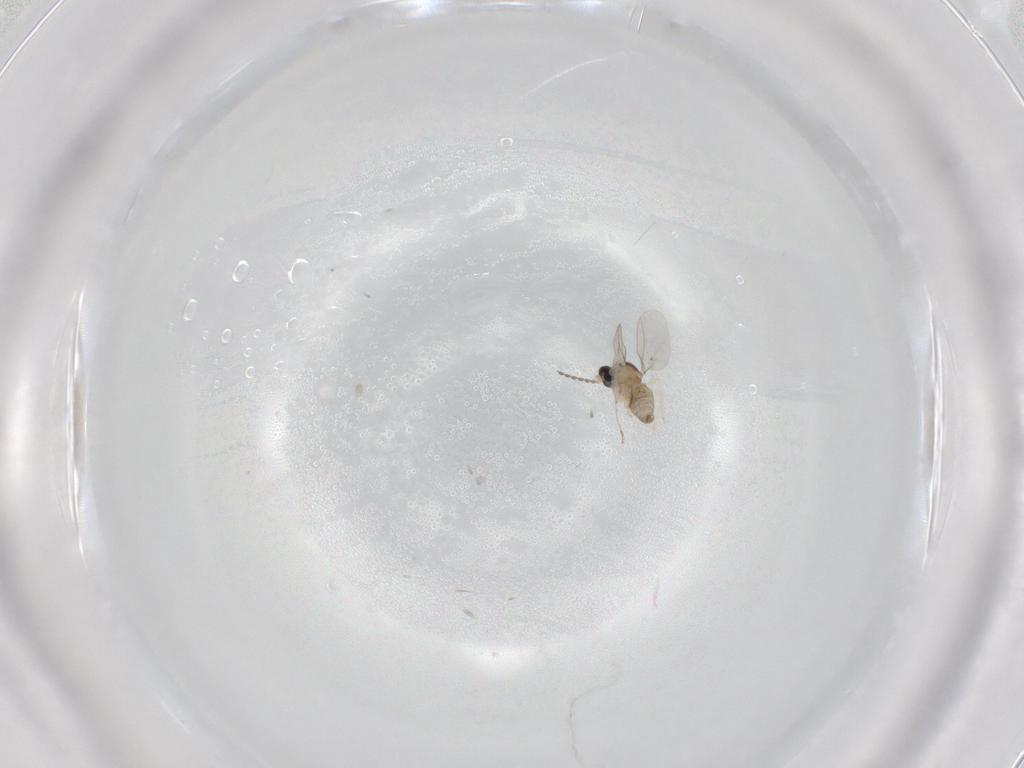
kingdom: Animalia
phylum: Arthropoda
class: Insecta
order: Diptera
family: Cecidomyiidae
